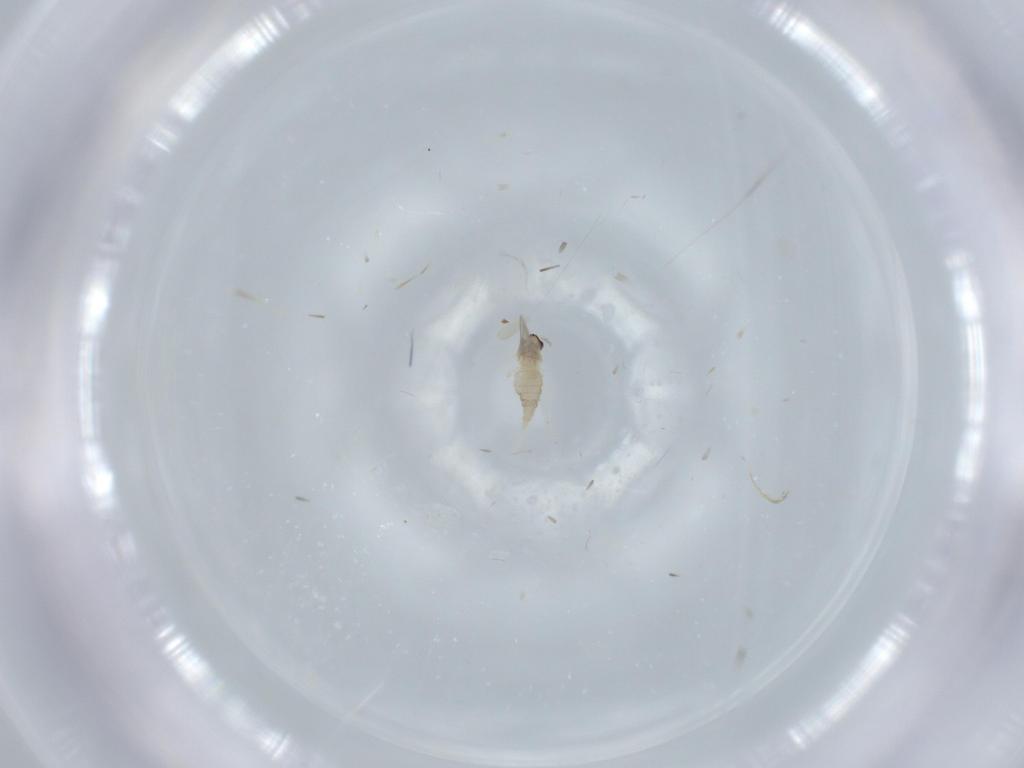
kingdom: Animalia
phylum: Arthropoda
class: Insecta
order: Diptera
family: Cecidomyiidae
